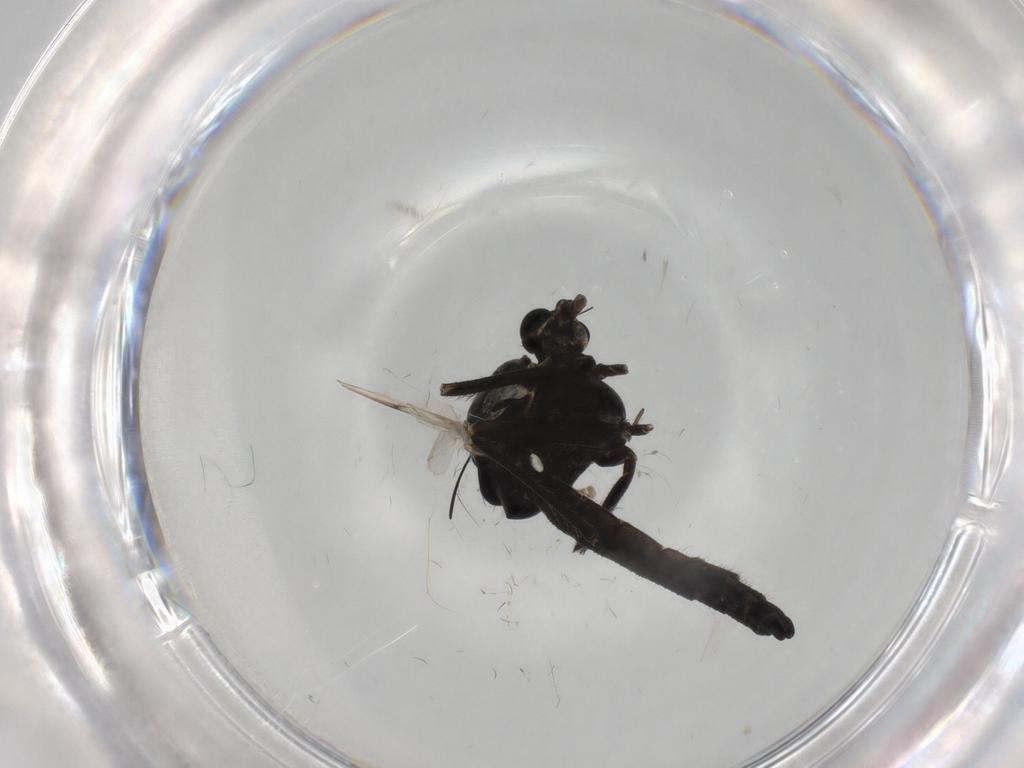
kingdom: Animalia
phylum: Arthropoda
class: Insecta
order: Diptera
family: Chironomidae
